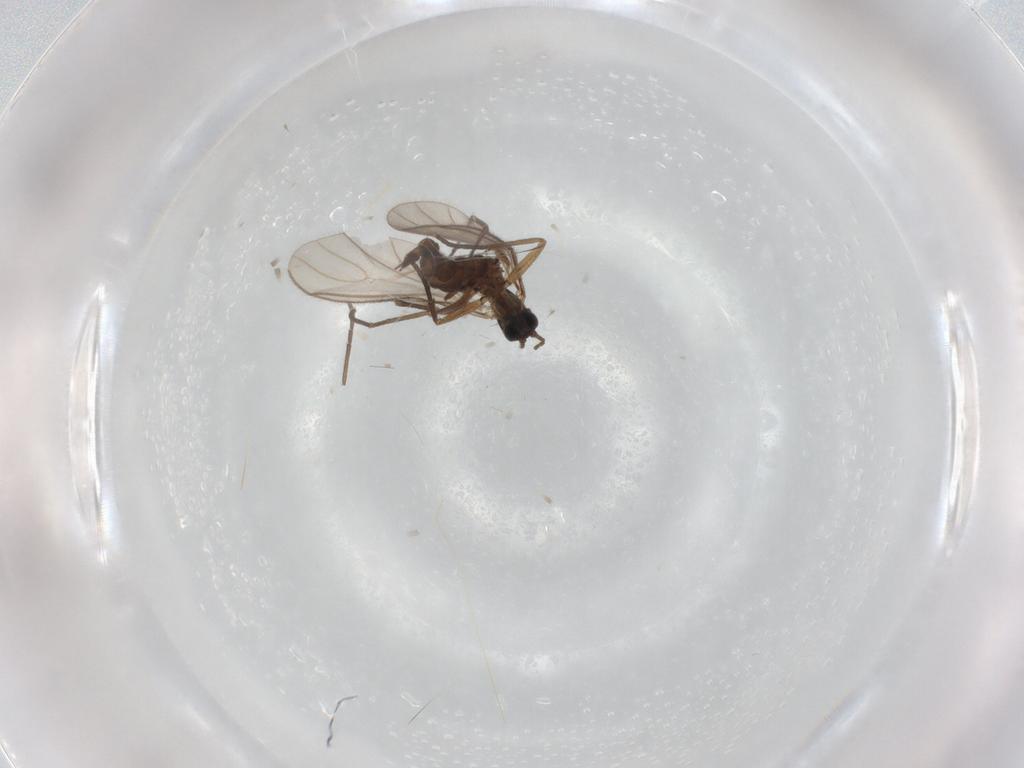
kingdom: Animalia
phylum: Arthropoda
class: Insecta
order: Diptera
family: Sciaridae
